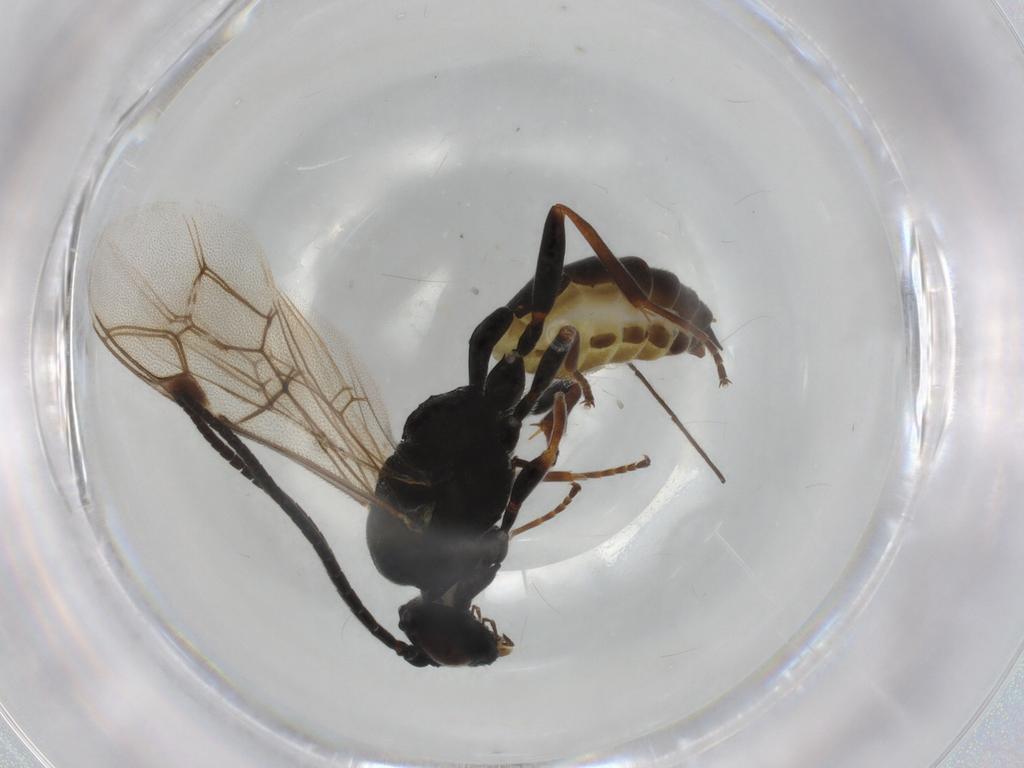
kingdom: Animalia
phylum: Arthropoda
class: Insecta
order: Hymenoptera
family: Ichneumonidae
